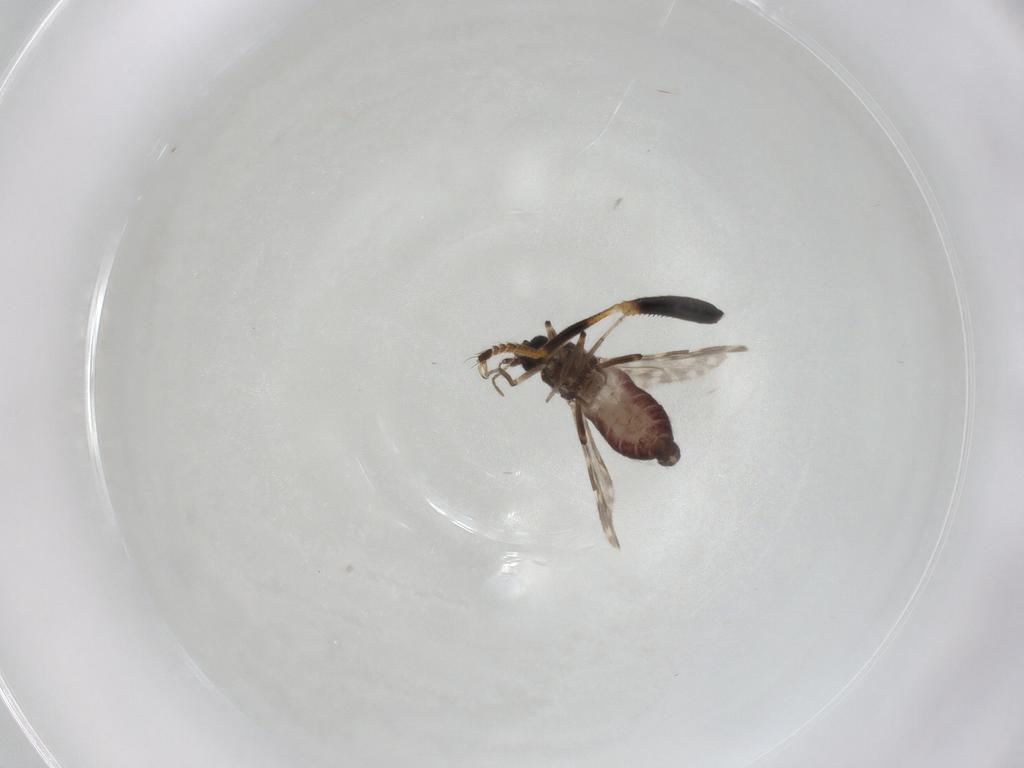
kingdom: Animalia
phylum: Arthropoda
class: Insecta
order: Diptera
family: Pipunculidae
